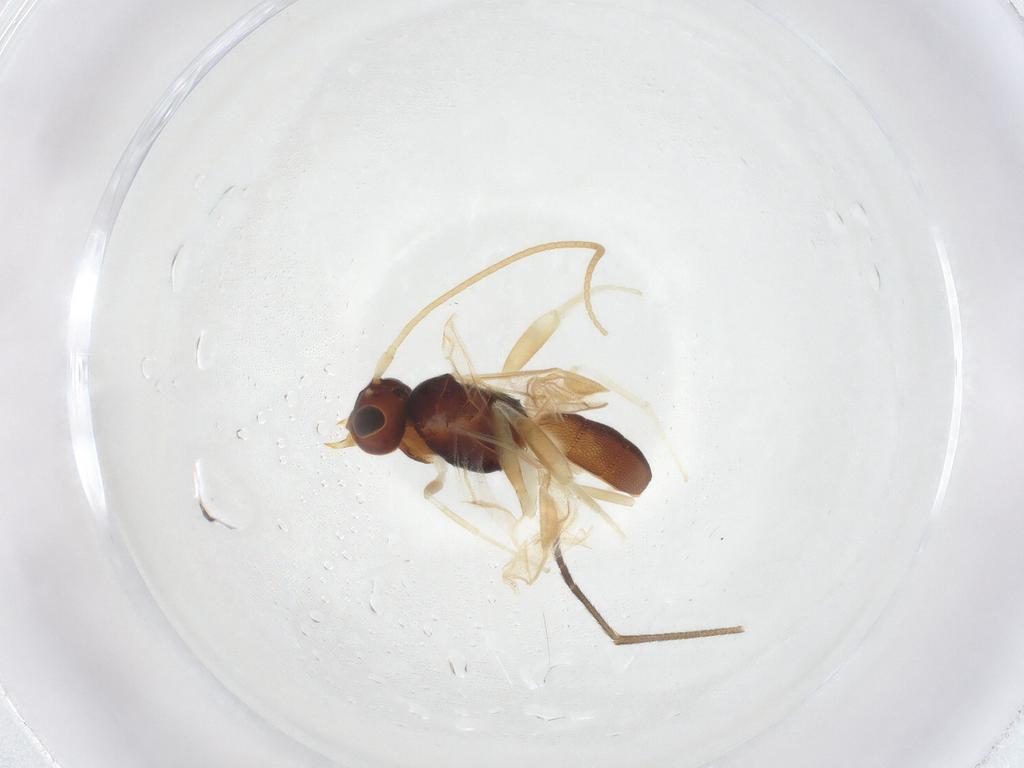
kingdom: Animalia
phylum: Arthropoda
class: Insecta
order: Diptera
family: Sciaridae
